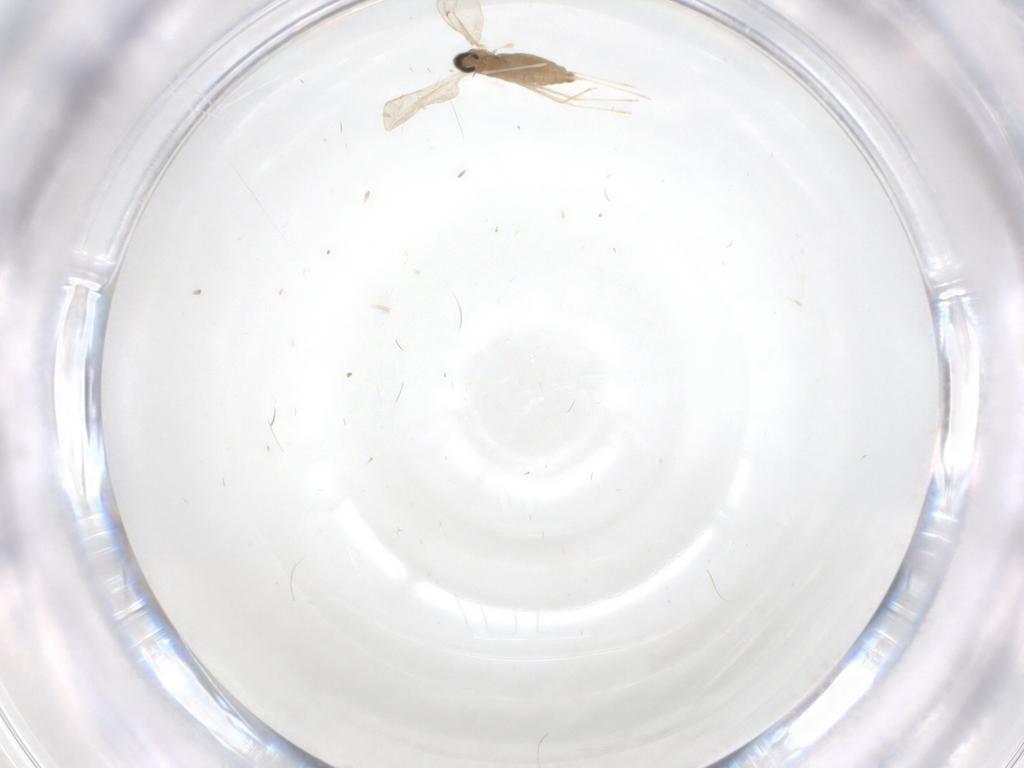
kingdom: Animalia
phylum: Arthropoda
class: Insecta
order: Diptera
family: Cecidomyiidae
